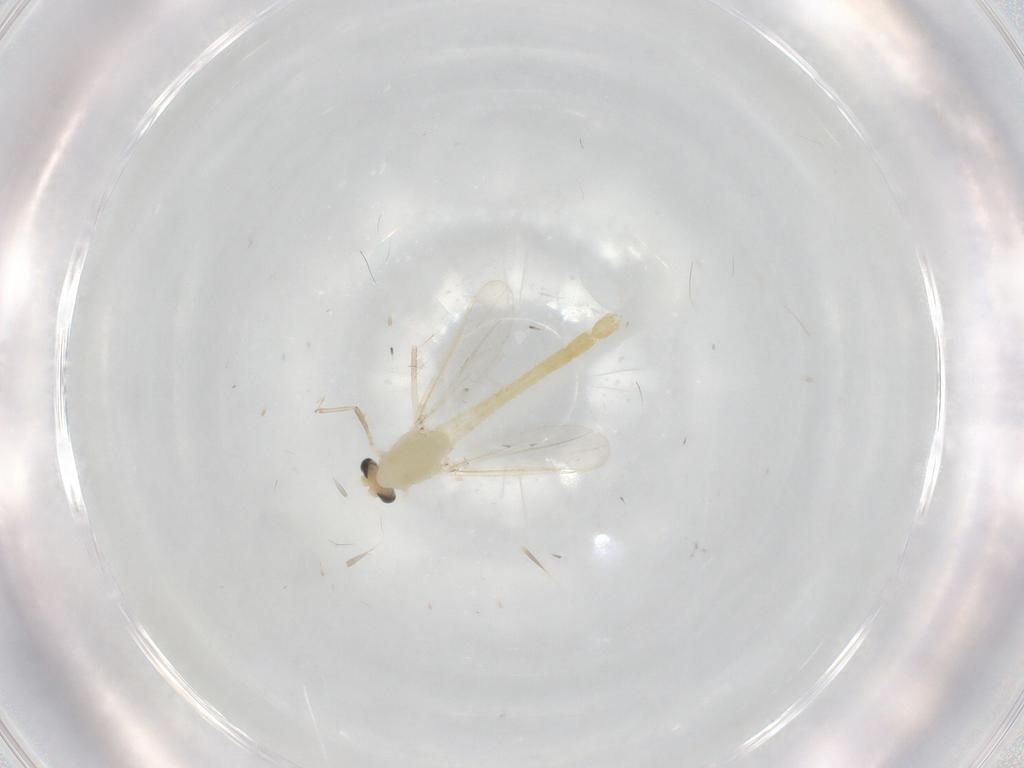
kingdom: Animalia
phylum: Arthropoda
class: Insecta
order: Diptera
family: Chironomidae
